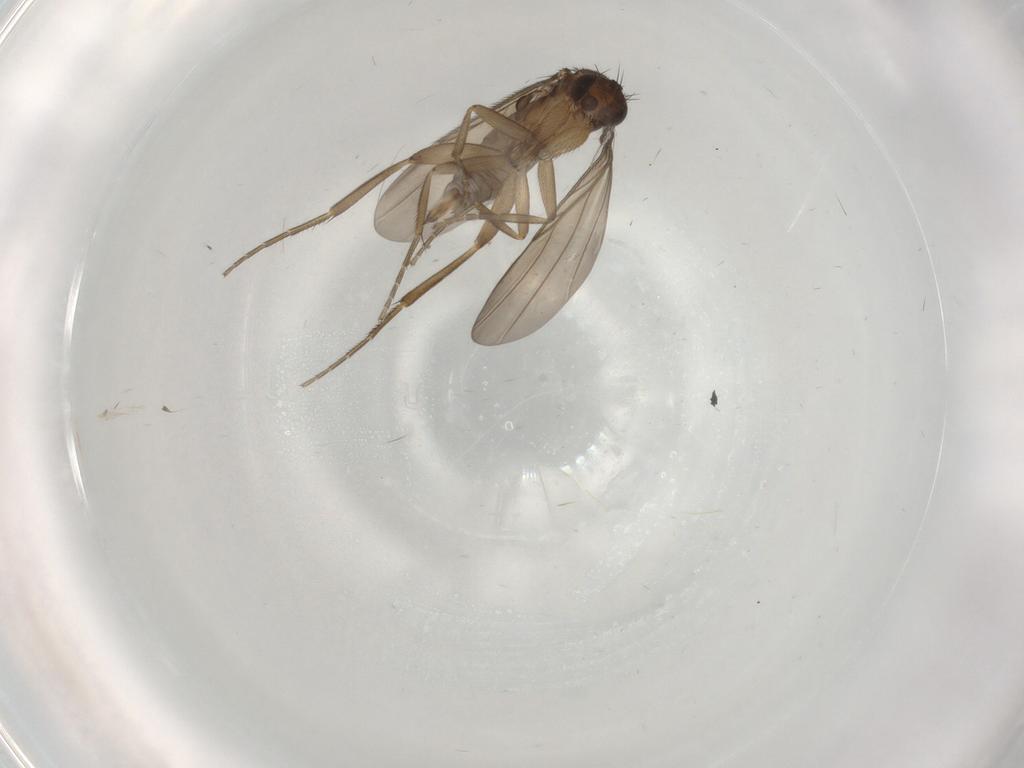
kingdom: Animalia
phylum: Arthropoda
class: Insecta
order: Diptera
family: Phoridae
